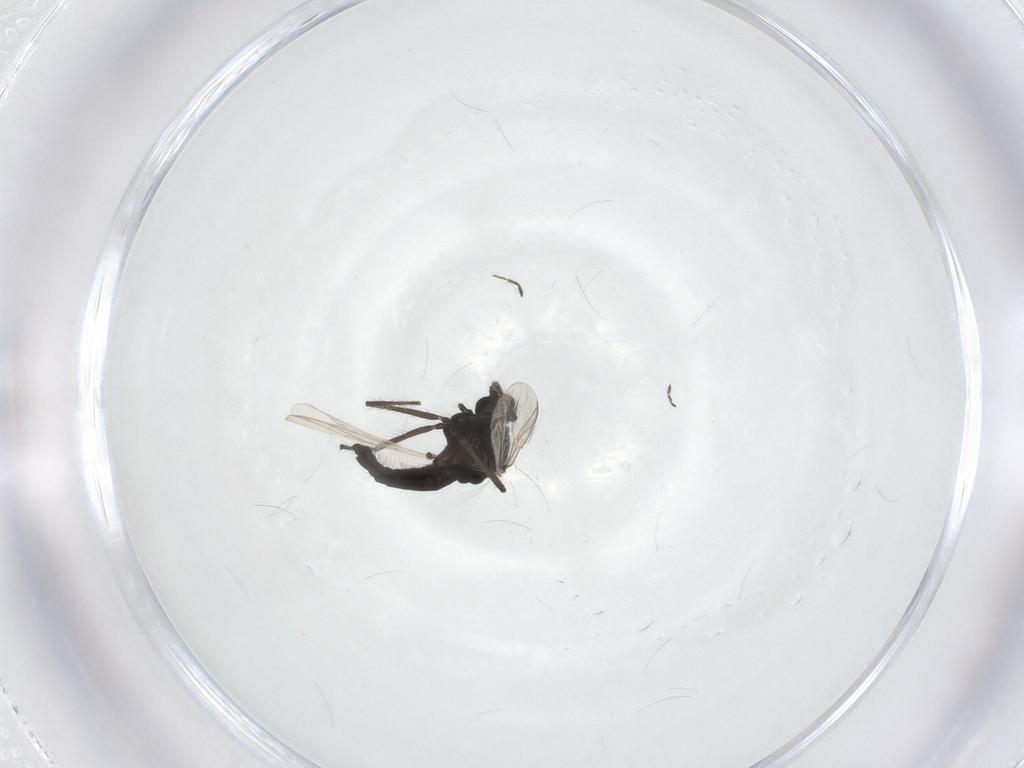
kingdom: Animalia
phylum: Arthropoda
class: Insecta
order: Diptera
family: Chironomidae
